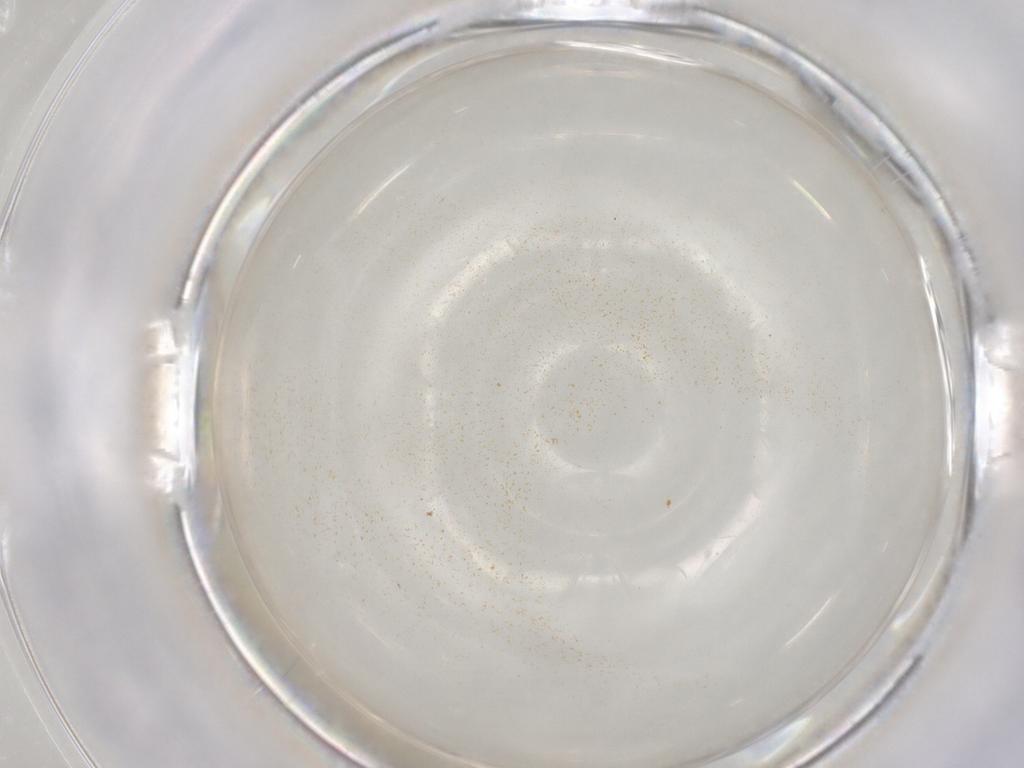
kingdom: Animalia
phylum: Arthropoda
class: Insecta
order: Hemiptera
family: Aleyrodidae
